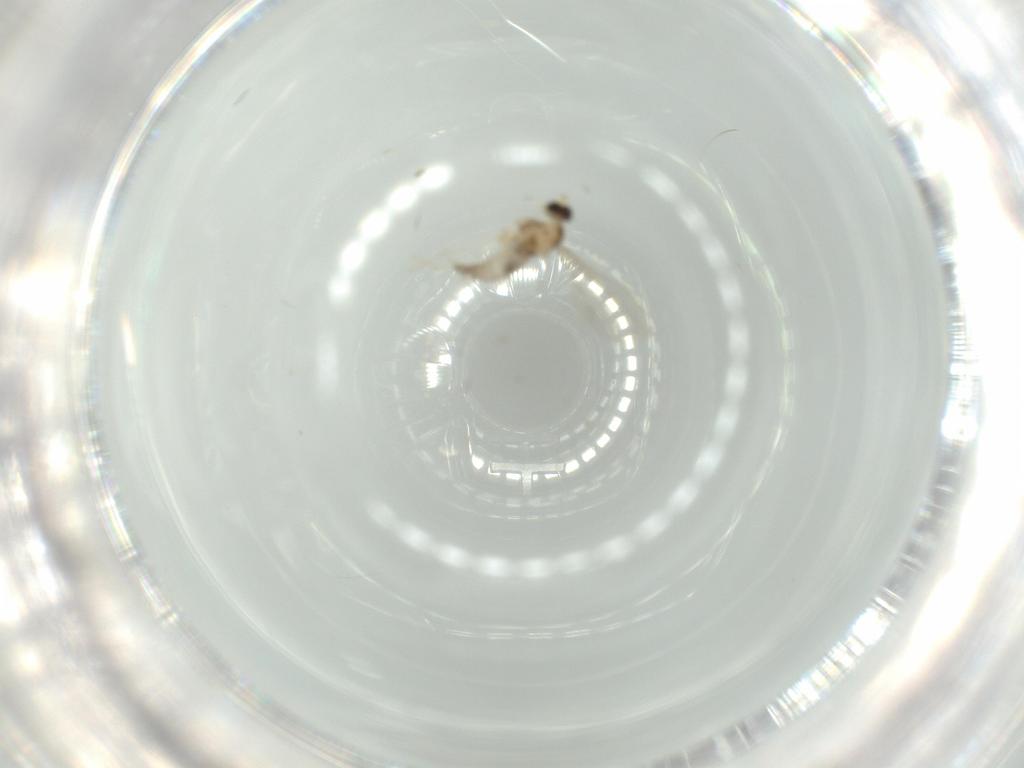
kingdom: Animalia
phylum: Arthropoda
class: Insecta
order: Diptera
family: Cecidomyiidae
